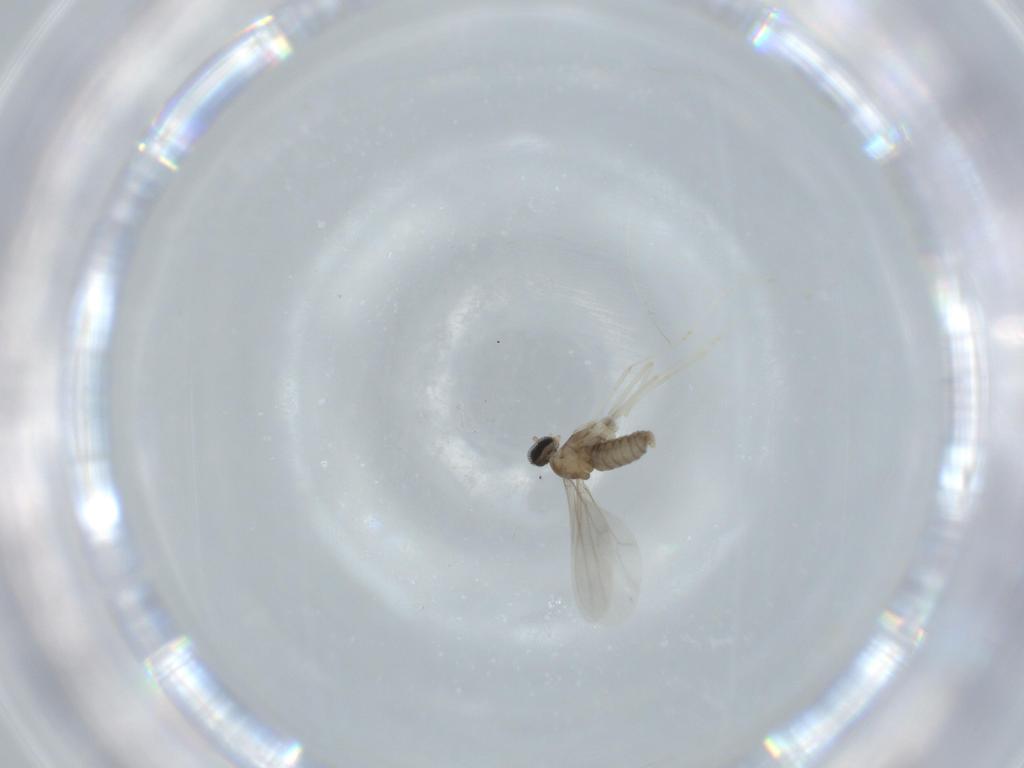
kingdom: Animalia
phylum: Arthropoda
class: Insecta
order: Diptera
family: Cecidomyiidae
